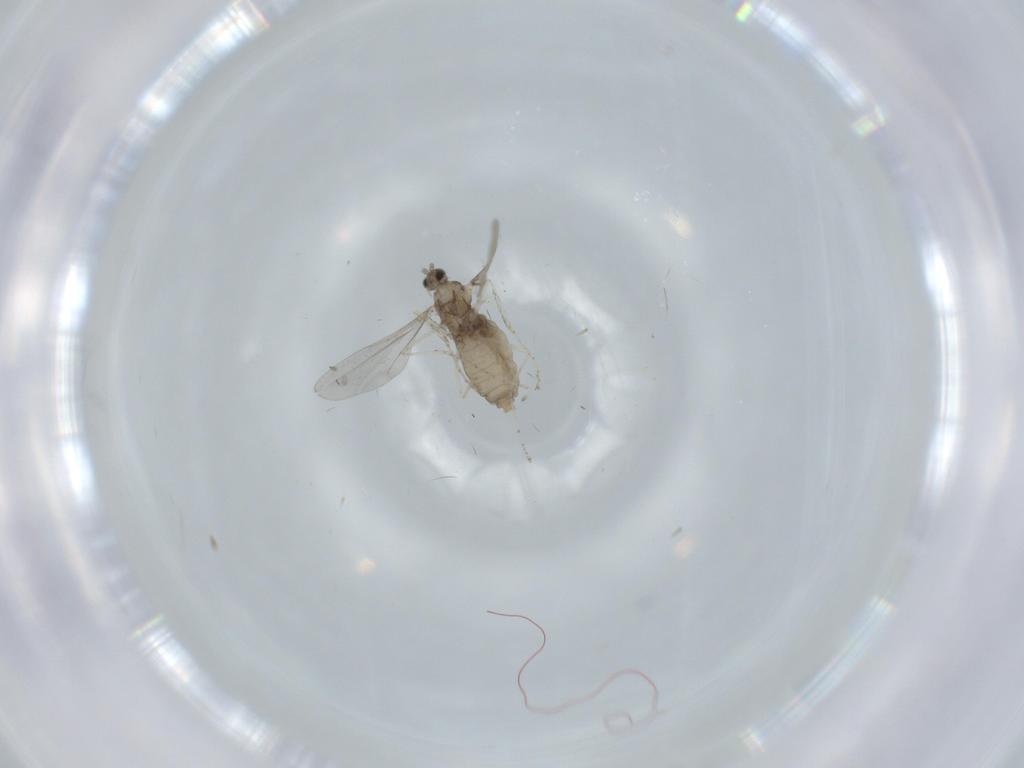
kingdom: Animalia
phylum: Arthropoda
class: Insecta
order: Diptera
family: Cecidomyiidae
